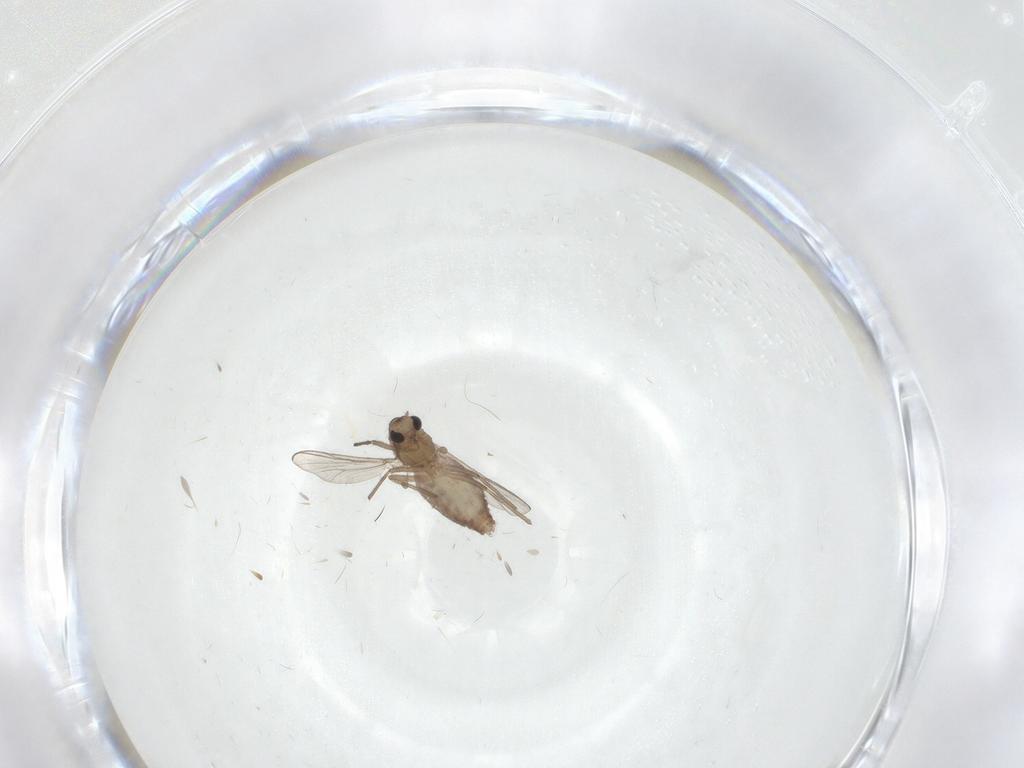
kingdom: Animalia
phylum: Arthropoda
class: Insecta
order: Diptera
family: Chironomidae
